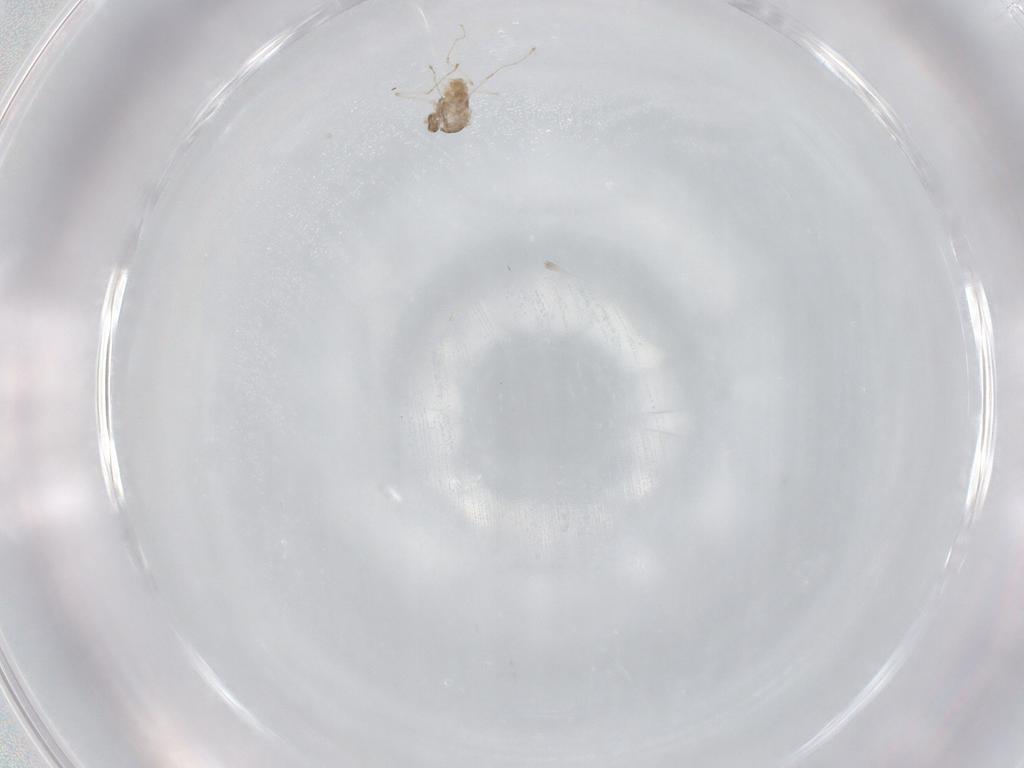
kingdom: Animalia
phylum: Arthropoda
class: Insecta
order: Diptera
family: Dolichopodidae
